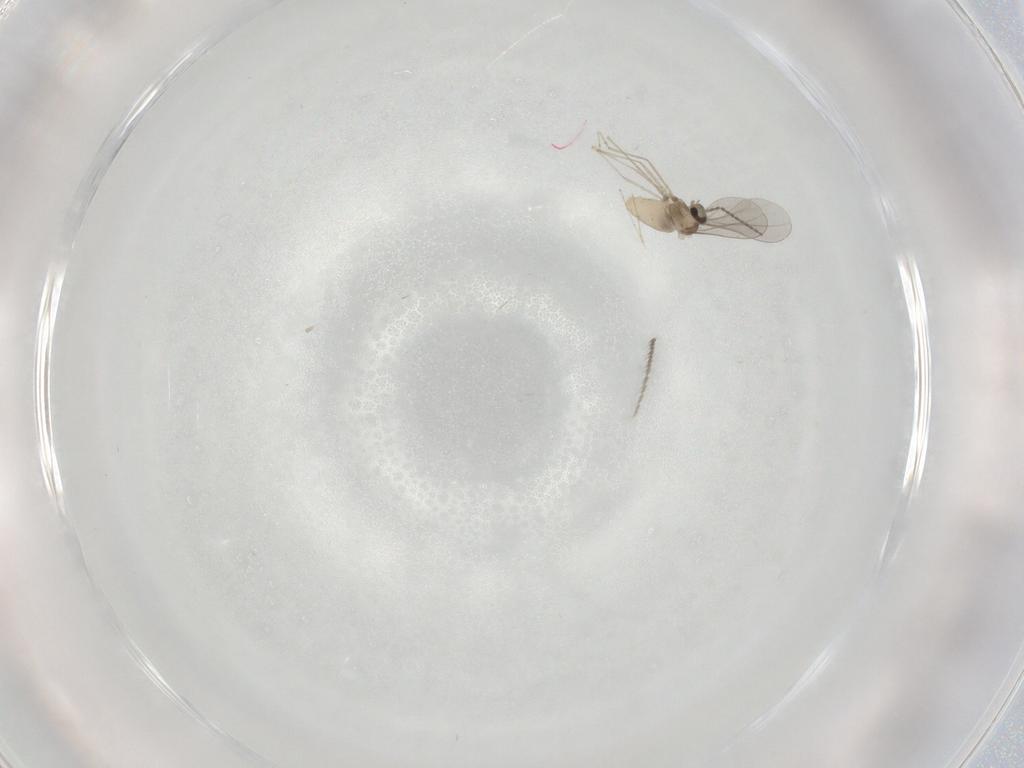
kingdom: Animalia
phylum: Arthropoda
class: Insecta
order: Diptera
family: Ceratopogonidae
